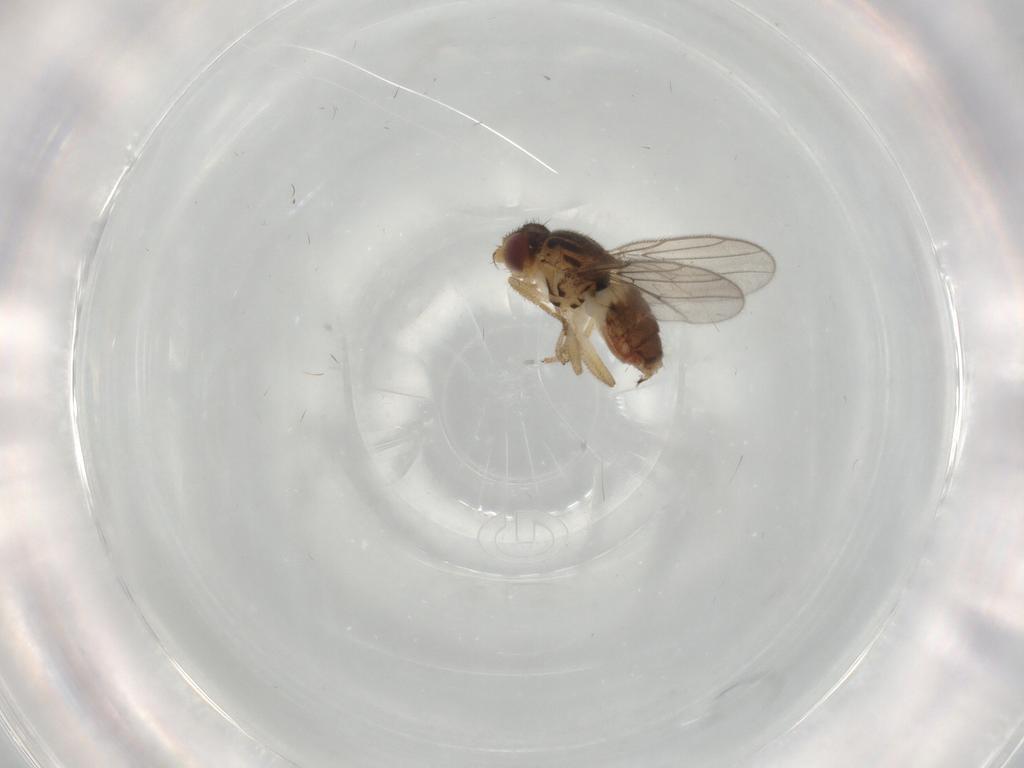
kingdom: Animalia
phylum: Arthropoda
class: Insecta
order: Diptera
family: Chloropidae
